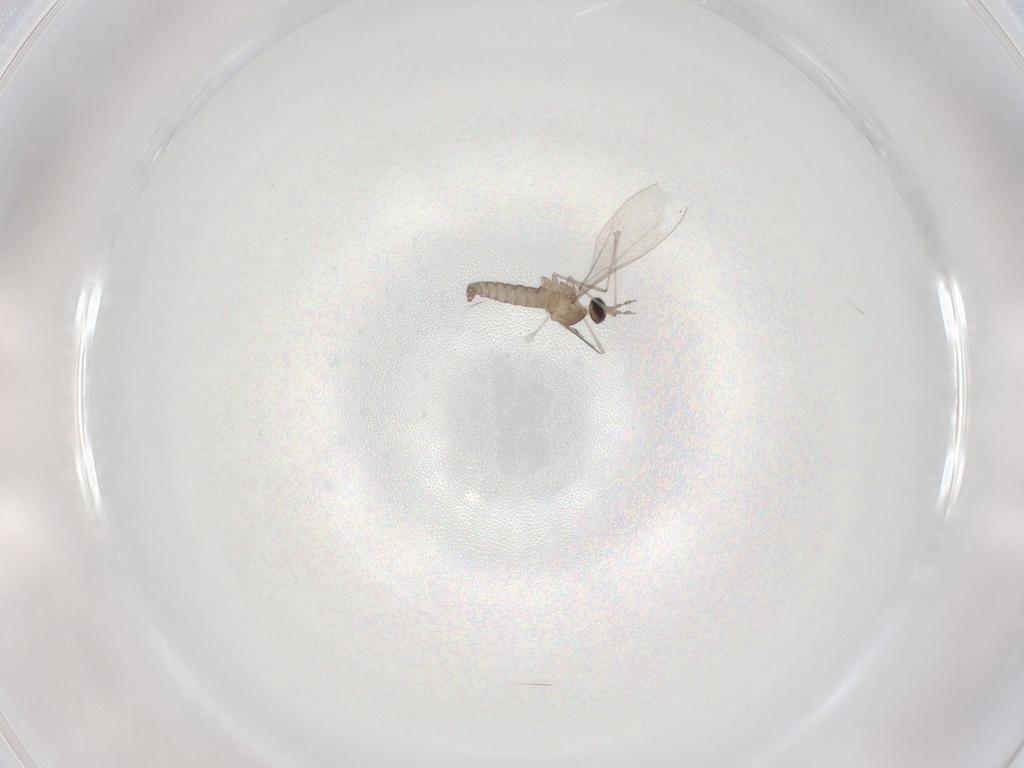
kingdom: Animalia
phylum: Arthropoda
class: Insecta
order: Diptera
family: Cecidomyiidae
